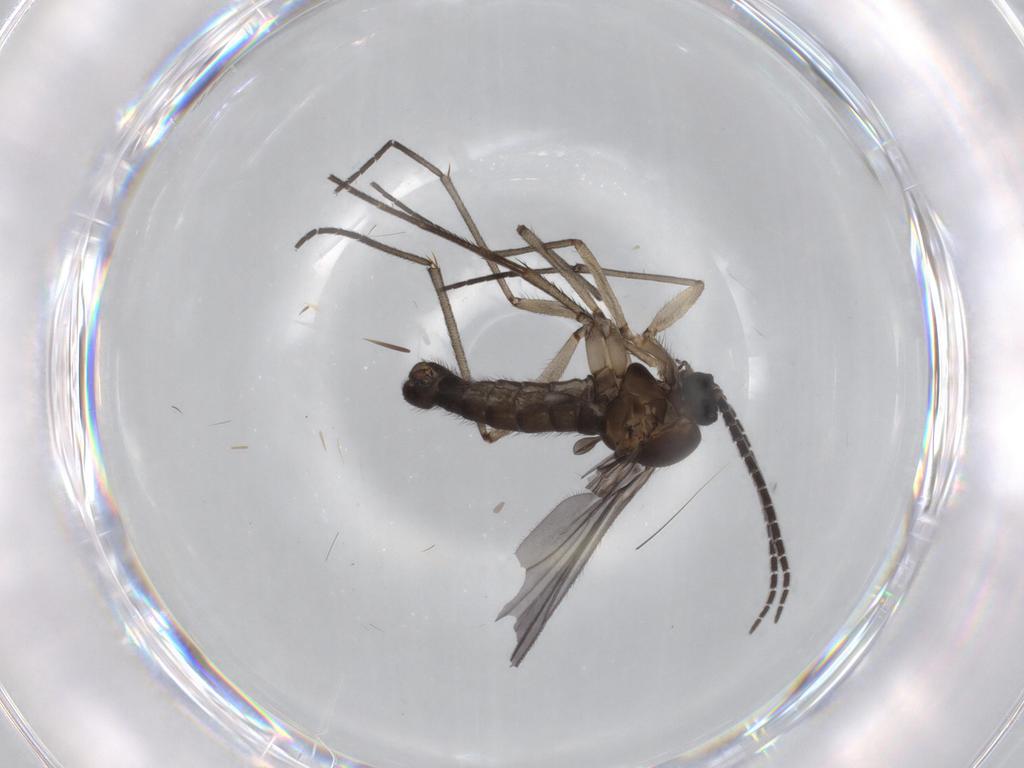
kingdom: Animalia
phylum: Arthropoda
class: Insecta
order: Diptera
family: Sciaridae
